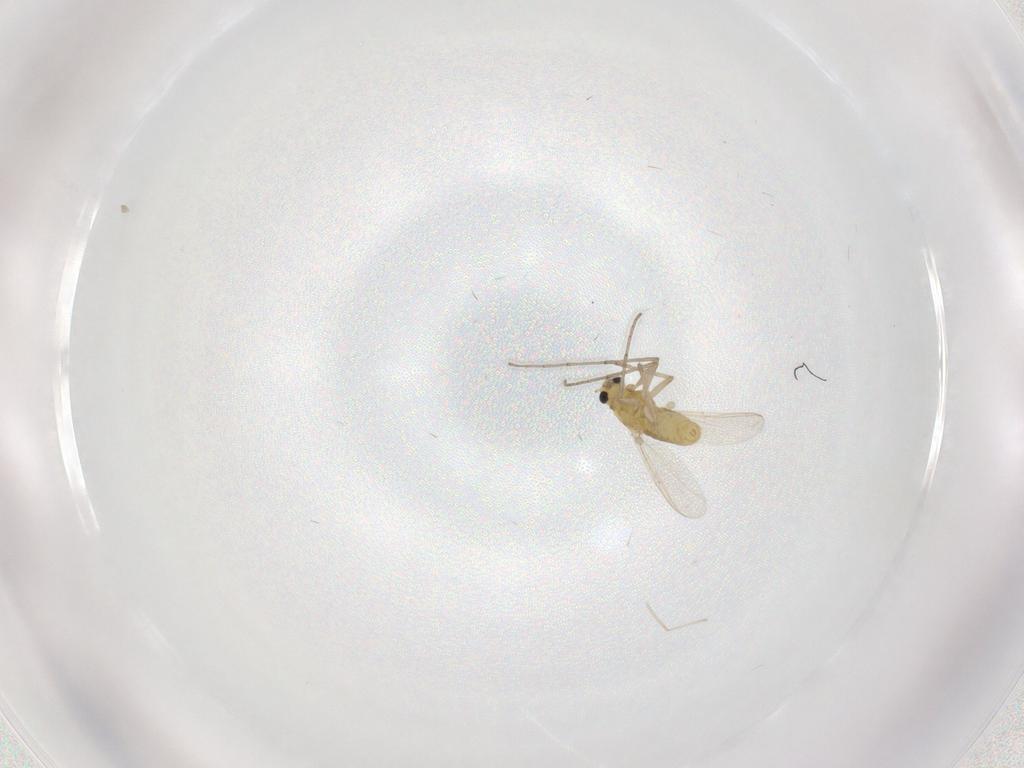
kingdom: Animalia
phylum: Arthropoda
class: Insecta
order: Diptera
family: Chironomidae
